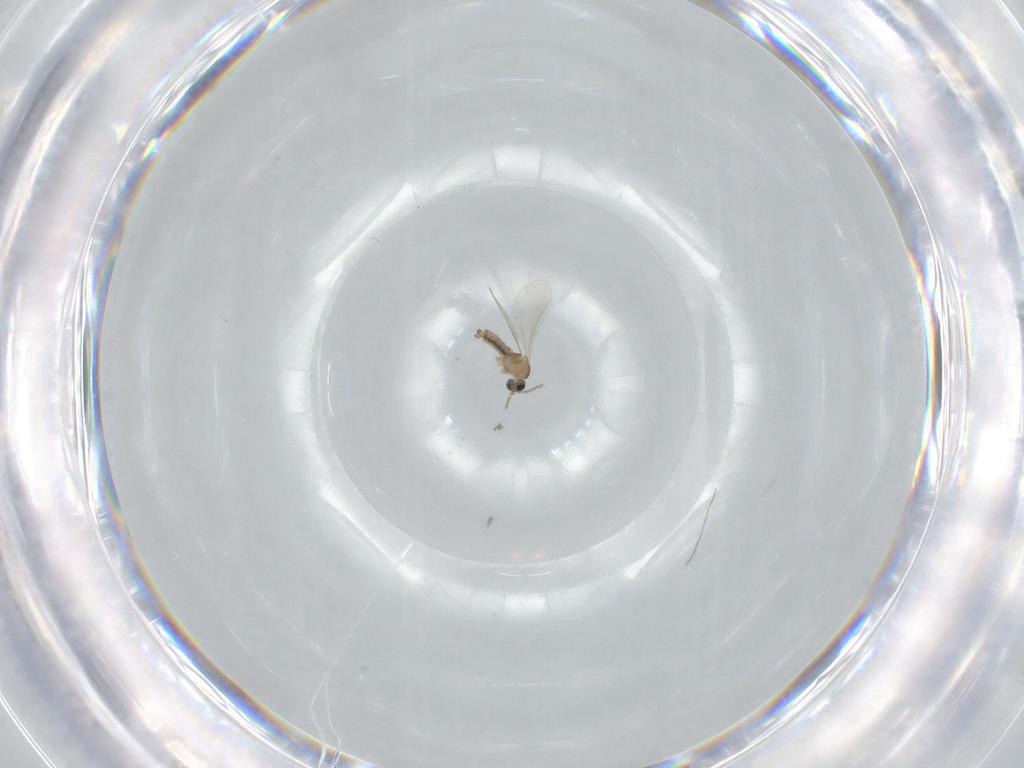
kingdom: Animalia
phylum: Arthropoda
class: Insecta
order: Diptera
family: Cecidomyiidae
